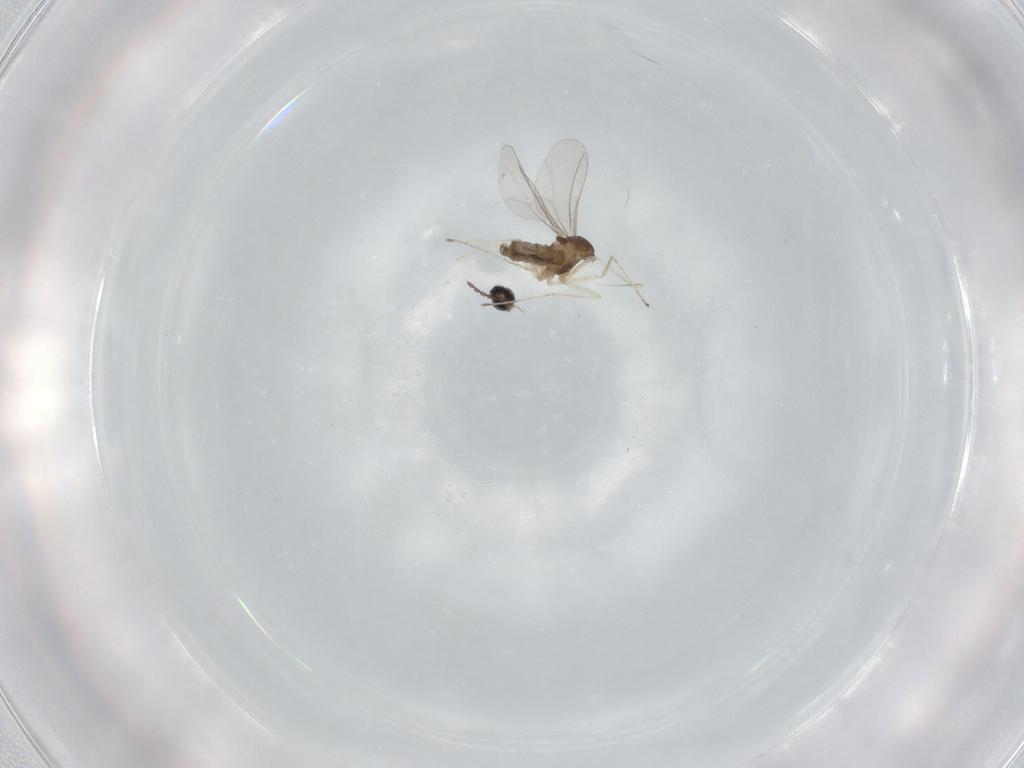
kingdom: Animalia
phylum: Arthropoda
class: Insecta
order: Diptera
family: Cecidomyiidae
